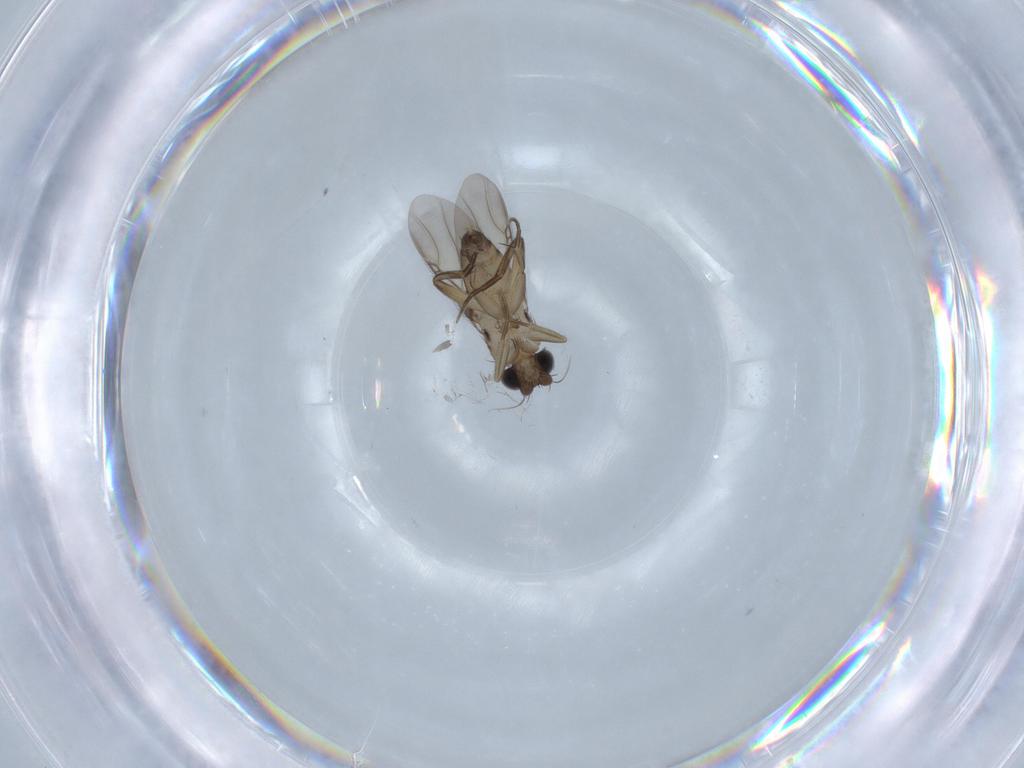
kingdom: Animalia
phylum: Arthropoda
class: Insecta
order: Diptera
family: Phoridae
